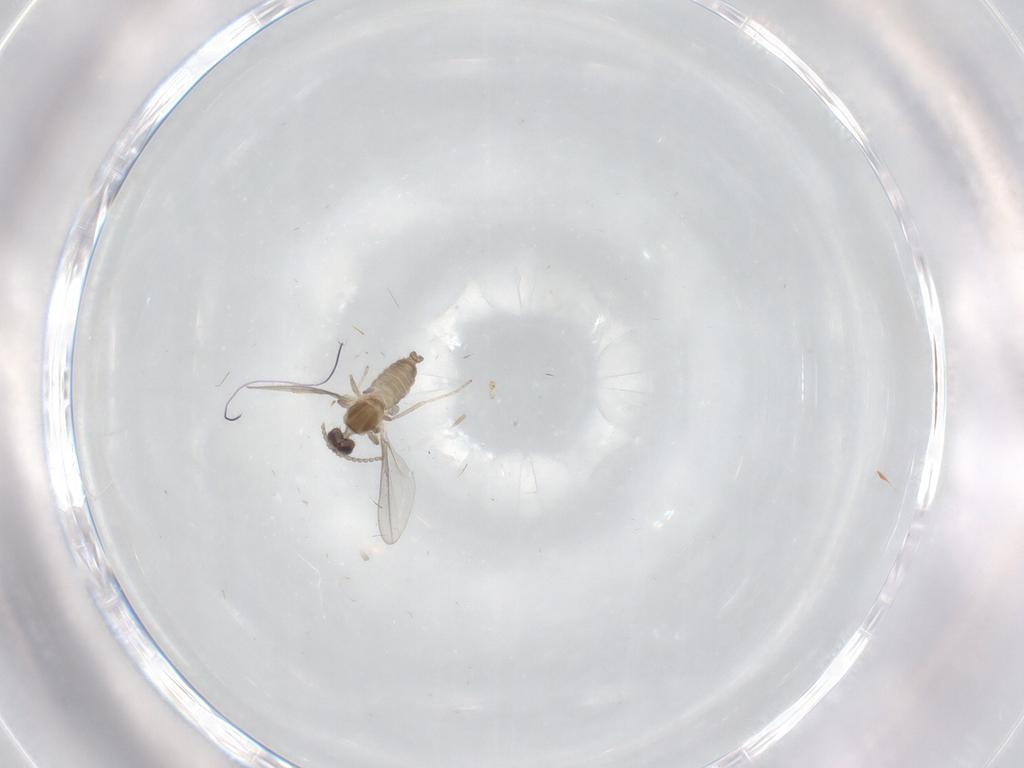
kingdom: Animalia
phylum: Arthropoda
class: Insecta
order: Diptera
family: Cecidomyiidae
